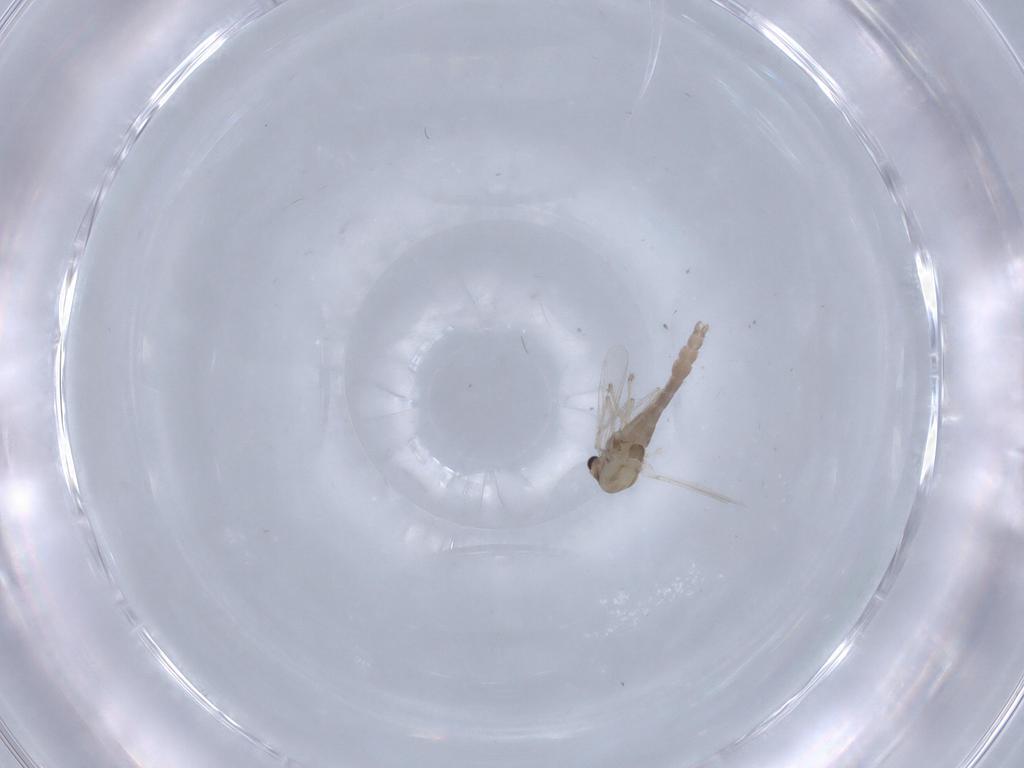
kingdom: Animalia
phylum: Arthropoda
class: Insecta
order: Diptera
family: Chironomidae
